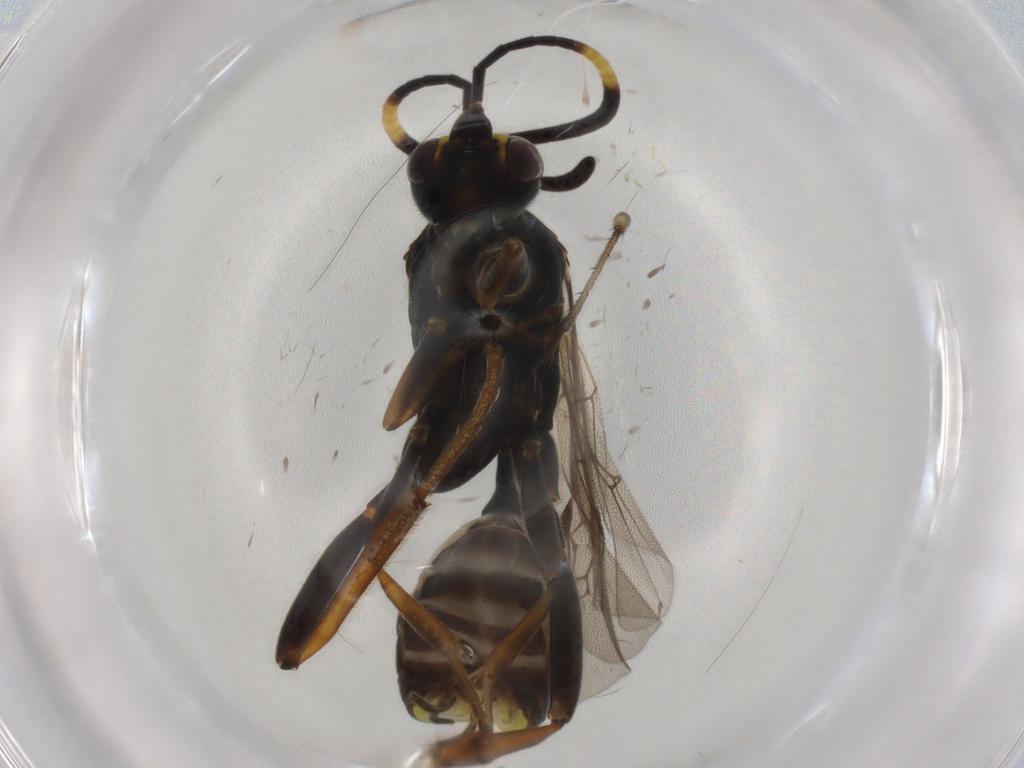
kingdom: Animalia
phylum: Arthropoda
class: Insecta
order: Hymenoptera
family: Ichneumonidae
